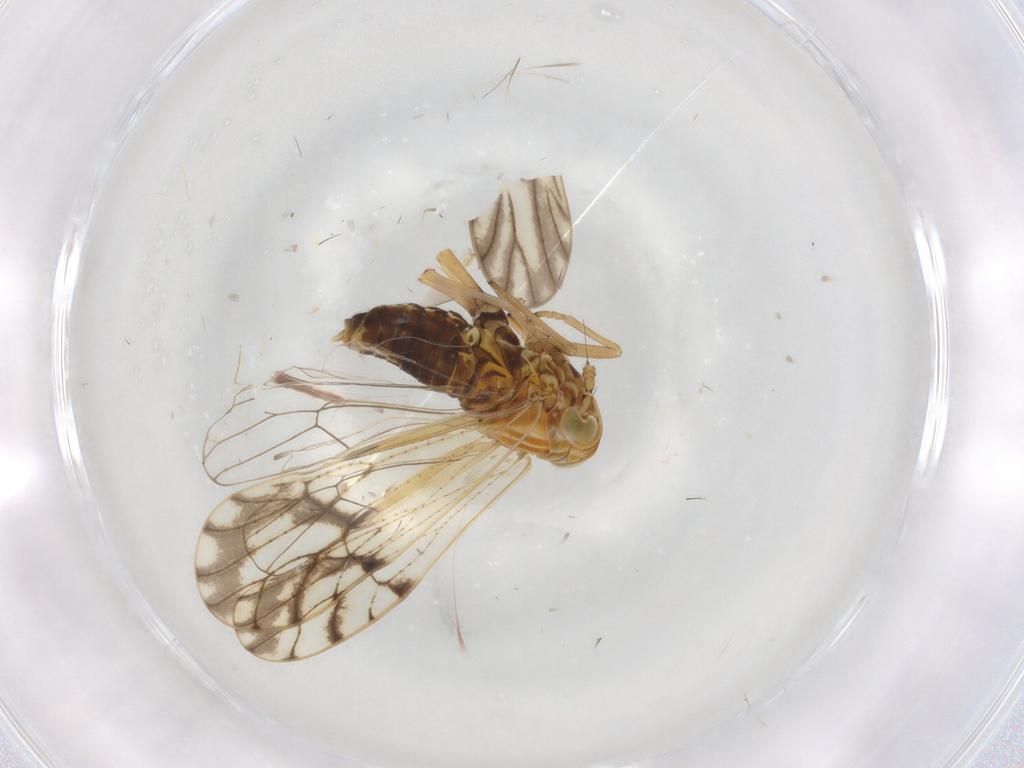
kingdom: Animalia
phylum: Arthropoda
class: Insecta
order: Hemiptera
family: Delphacidae
